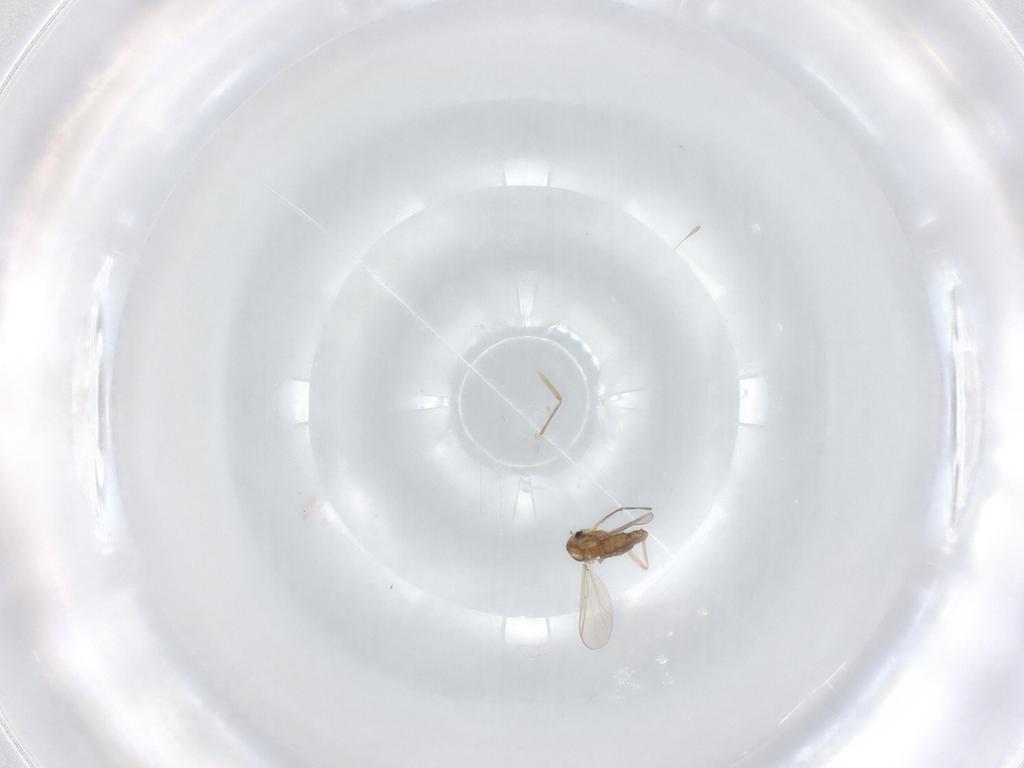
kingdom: Animalia
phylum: Arthropoda
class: Insecta
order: Diptera
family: Chironomidae
